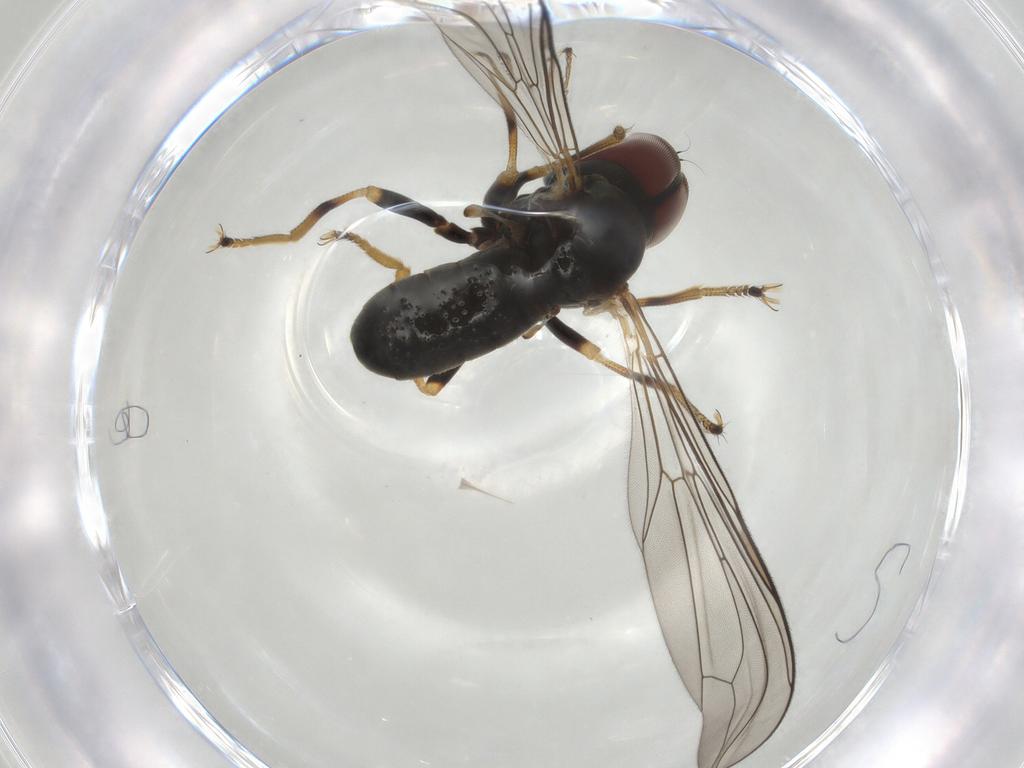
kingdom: Animalia
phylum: Arthropoda
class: Insecta
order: Diptera
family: Pipunculidae
